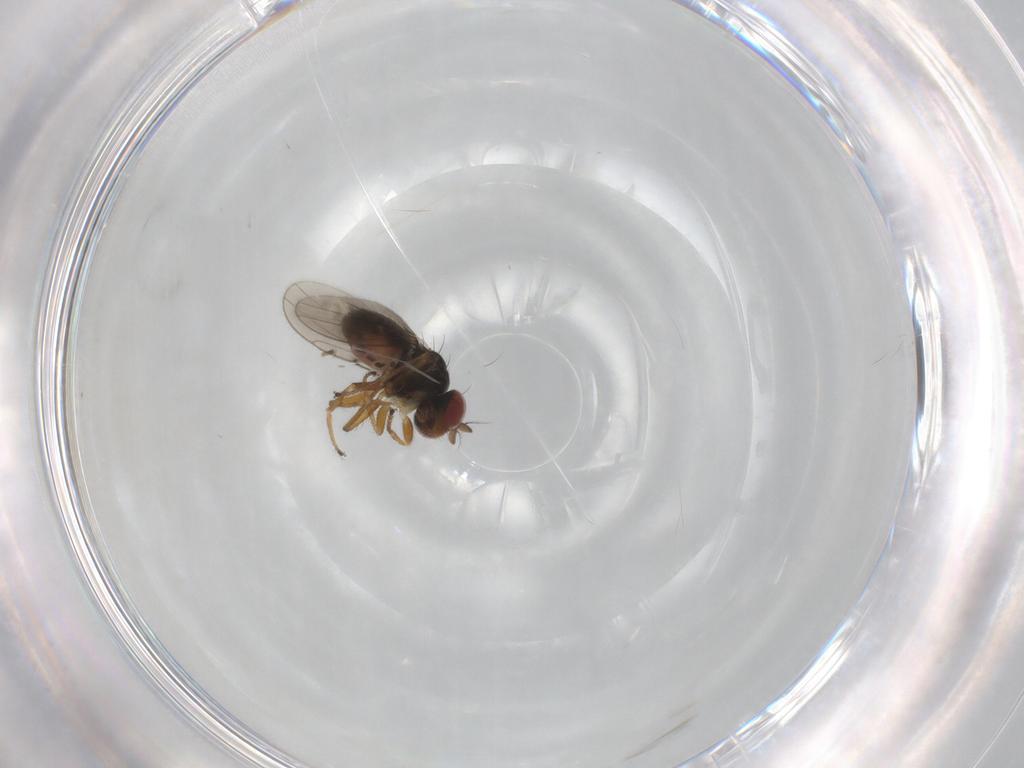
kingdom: Animalia
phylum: Arthropoda
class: Insecta
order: Diptera
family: Ephydridae
